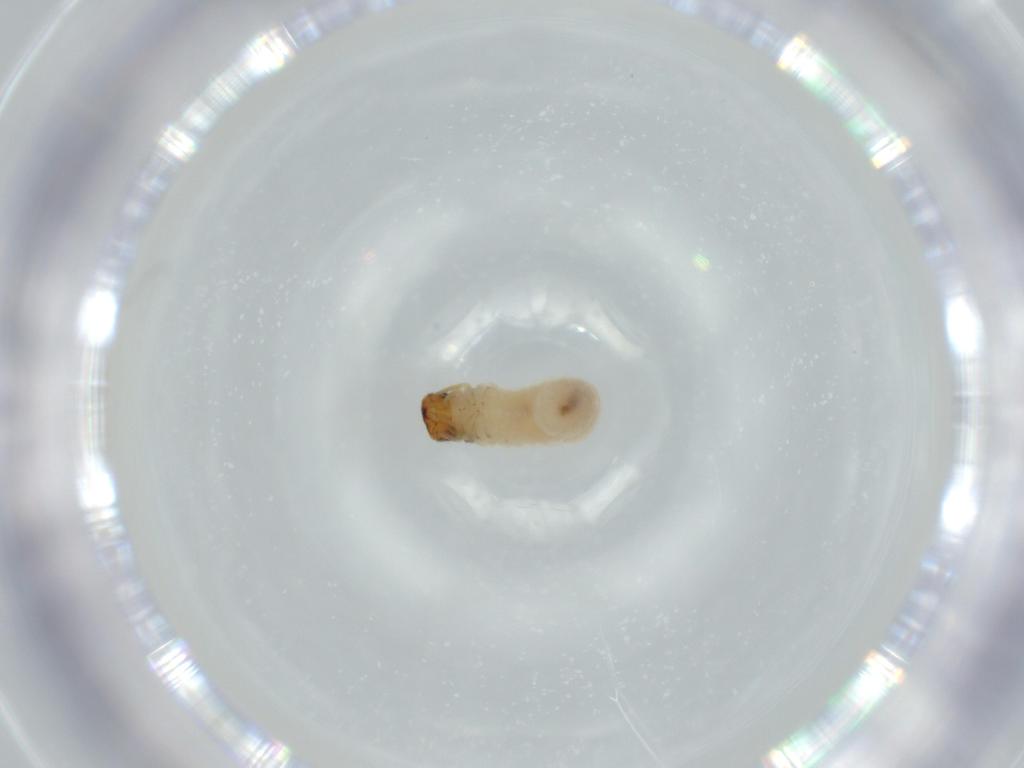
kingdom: Animalia
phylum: Arthropoda
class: Insecta
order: Coleoptera
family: Chrysomelidae
